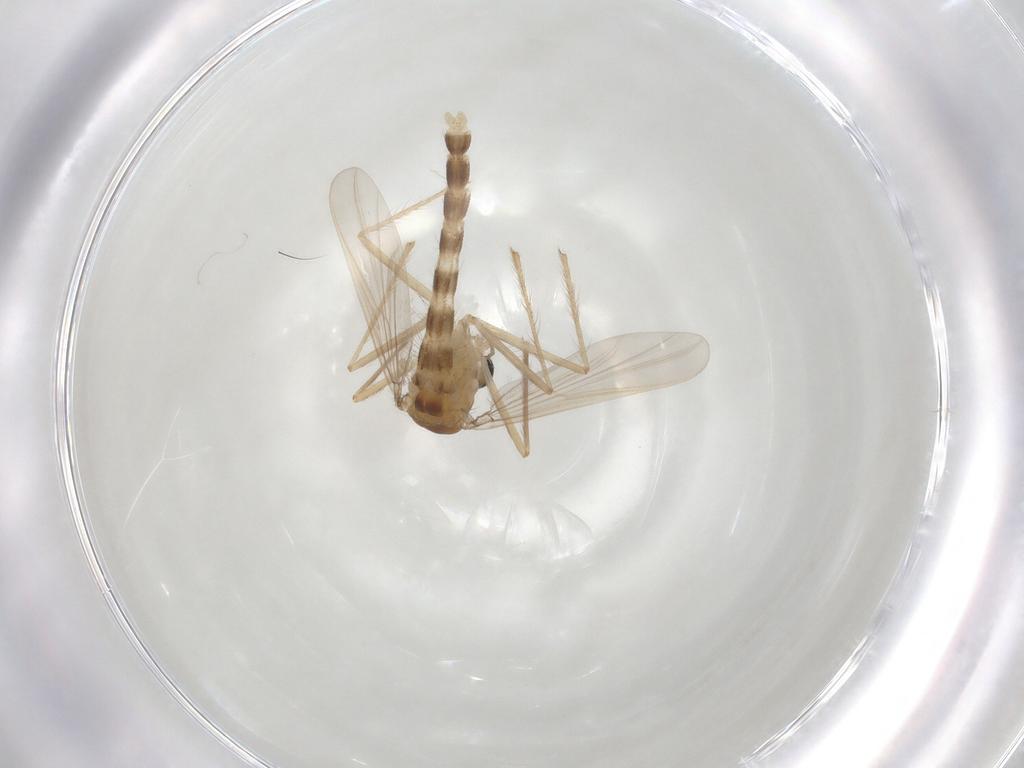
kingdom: Animalia
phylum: Arthropoda
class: Insecta
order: Diptera
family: Chironomidae
